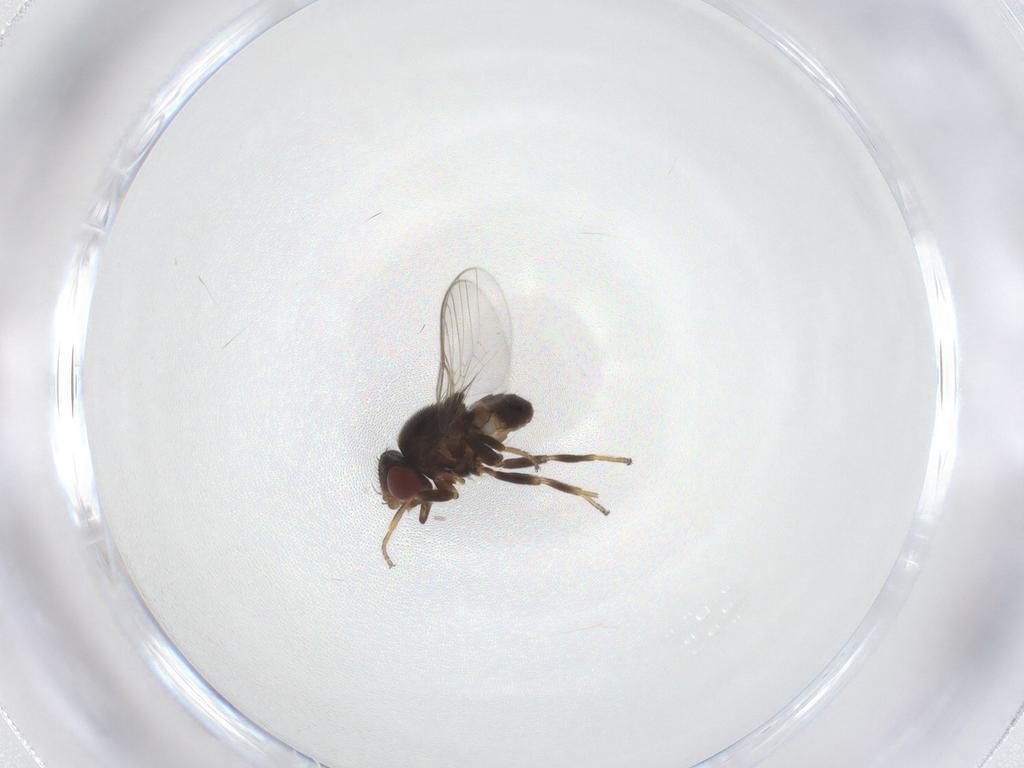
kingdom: Animalia
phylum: Arthropoda
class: Insecta
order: Diptera
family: Chloropidae
